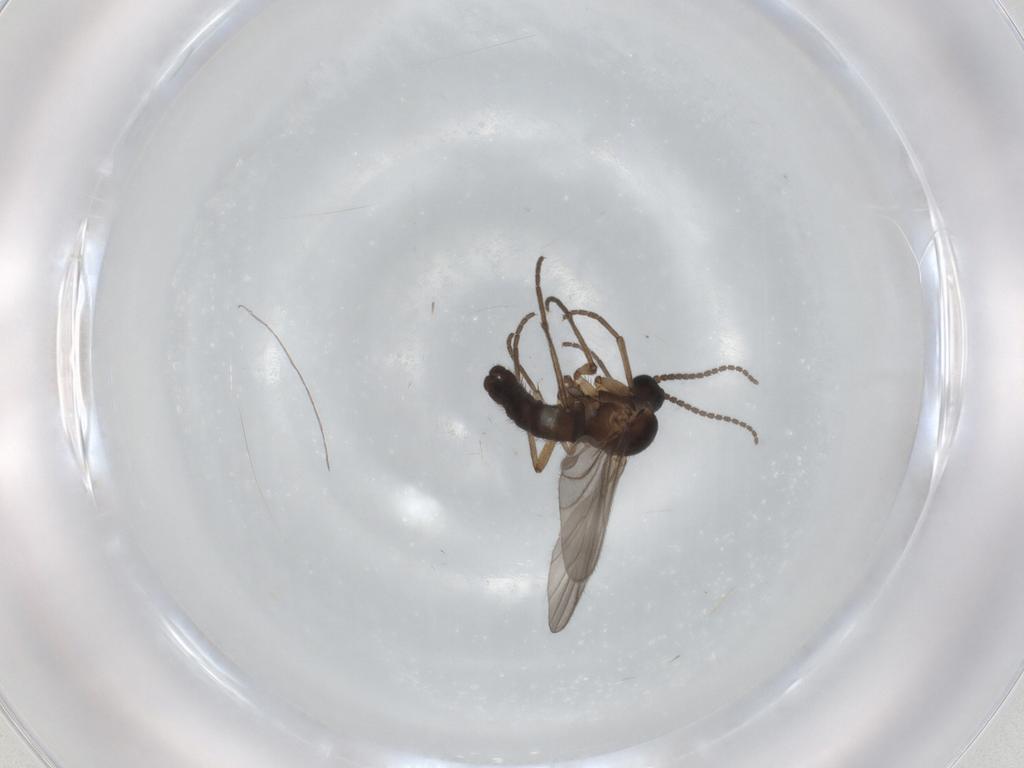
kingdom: Animalia
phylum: Arthropoda
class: Insecta
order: Diptera
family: Sciaridae
